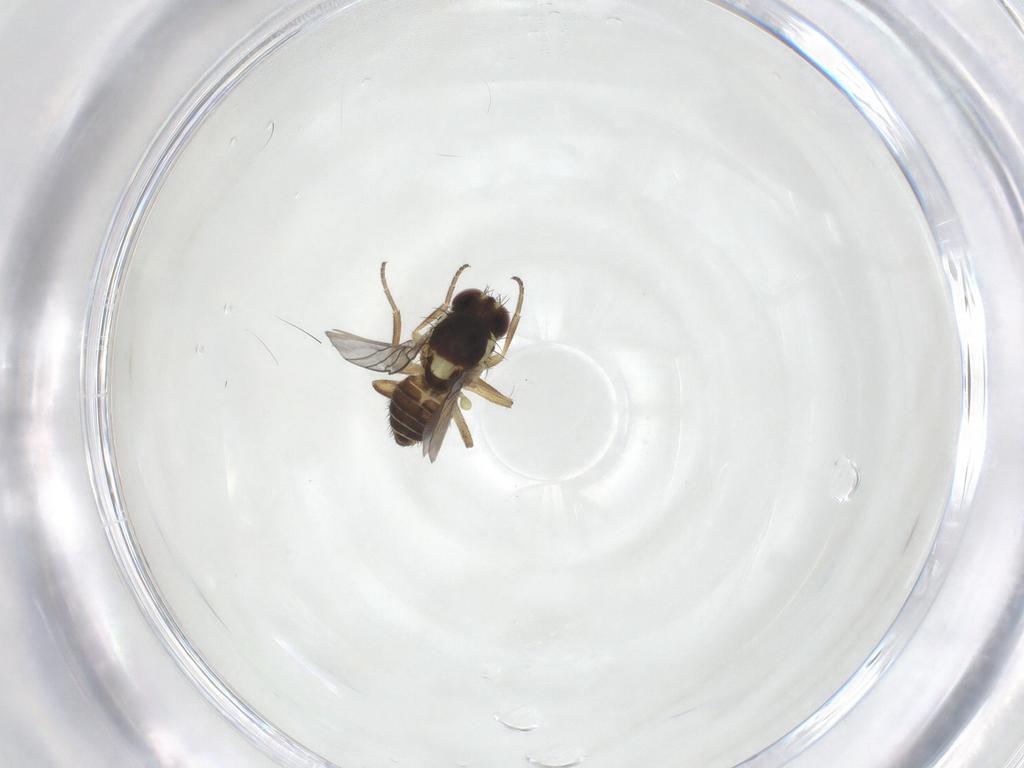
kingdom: Animalia
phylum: Arthropoda
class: Insecta
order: Diptera
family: Agromyzidae
